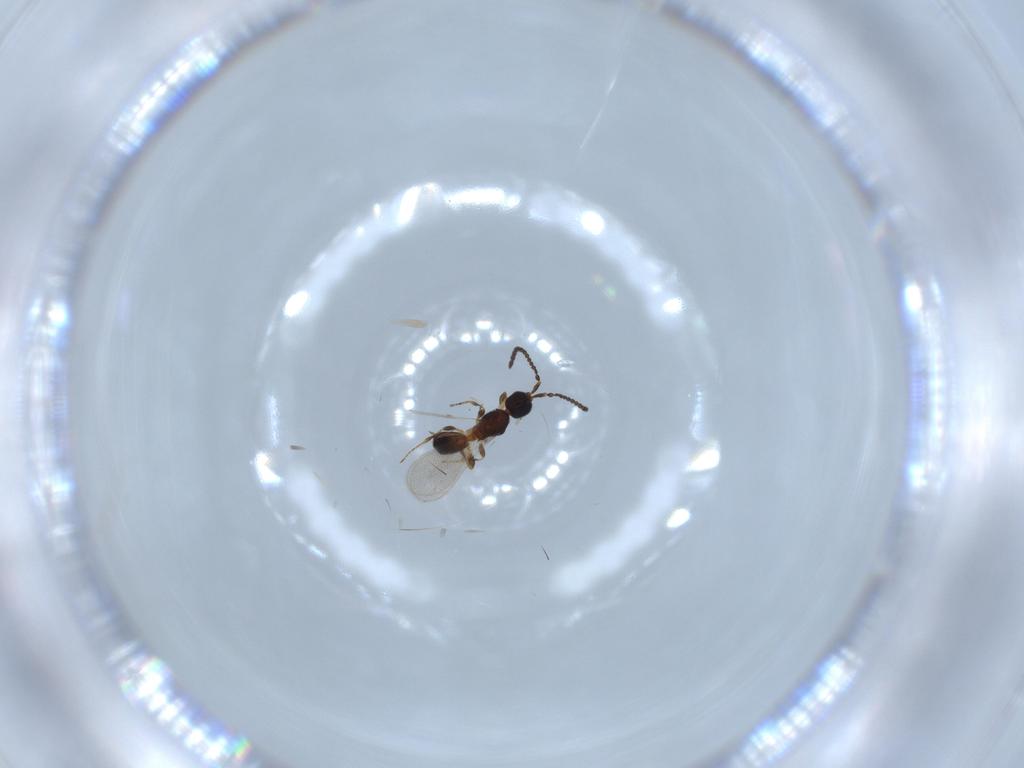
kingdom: Animalia
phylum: Arthropoda
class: Insecta
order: Hymenoptera
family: Diapriidae
